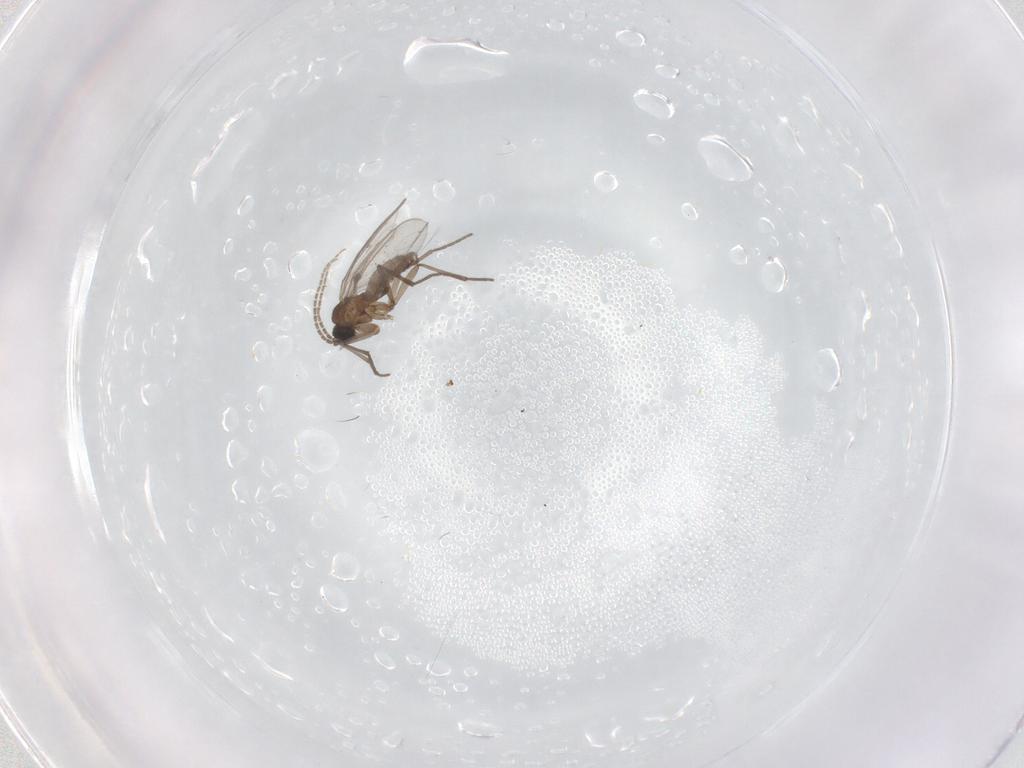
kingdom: Animalia
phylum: Arthropoda
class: Insecta
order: Diptera
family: Sciaridae
